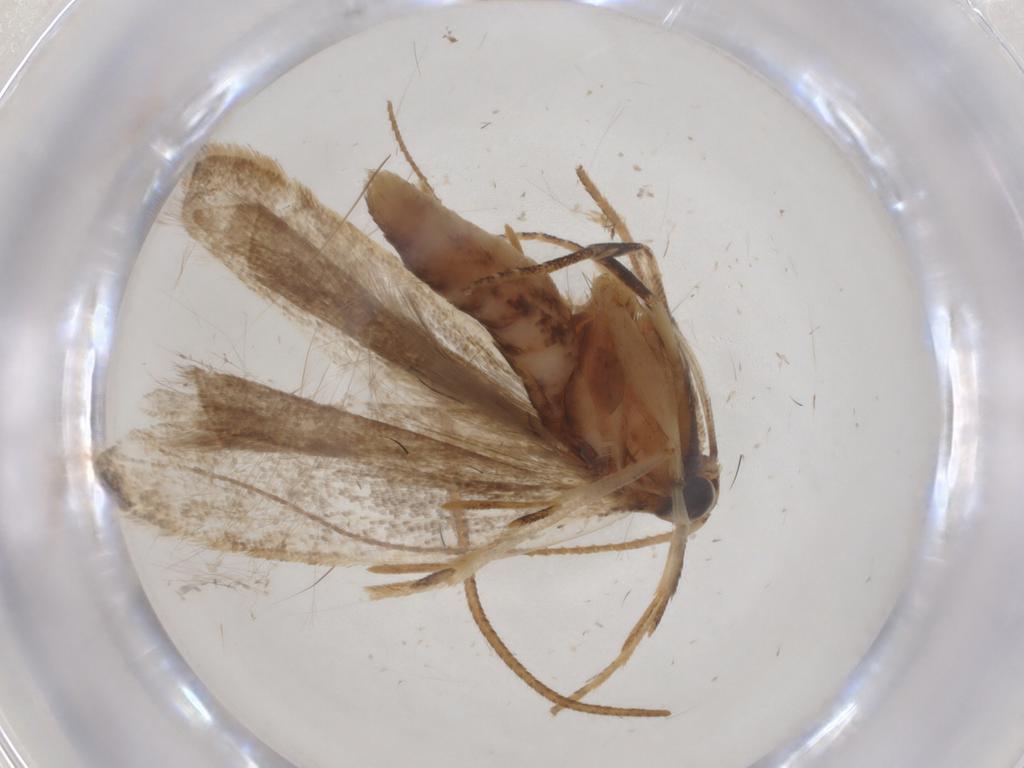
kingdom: Animalia
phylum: Arthropoda
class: Insecta
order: Lepidoptera
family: Gelechiidae
